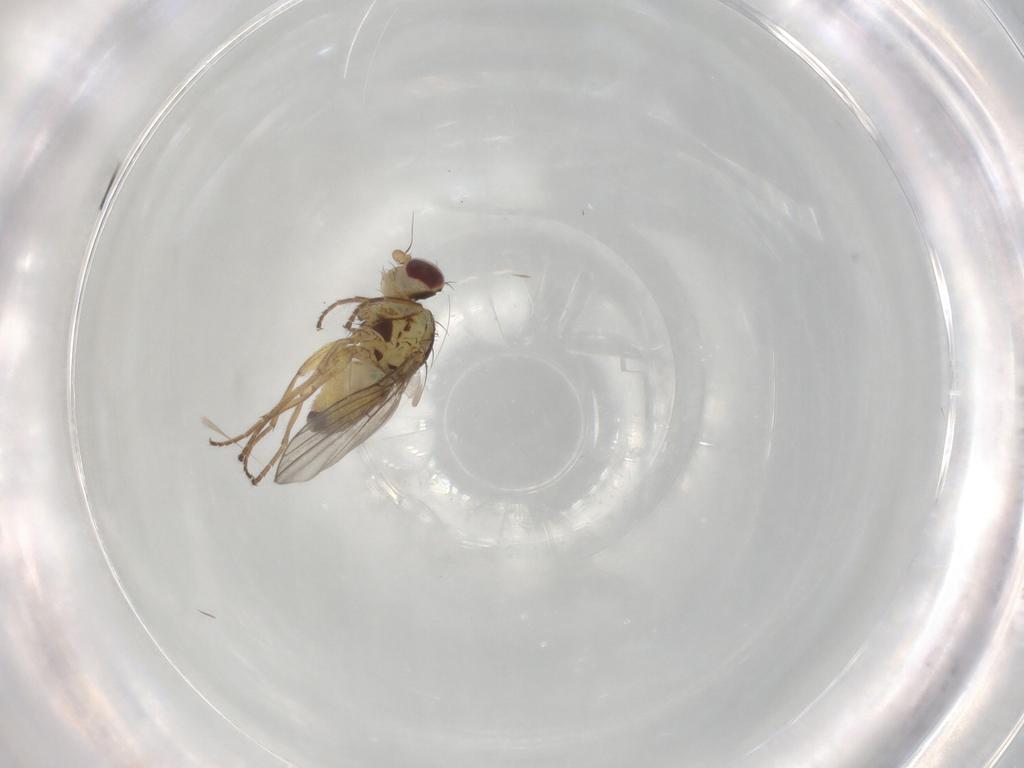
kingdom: Animalia
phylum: Arthropoda
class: Insecta
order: Diptera
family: Agromyzidae
